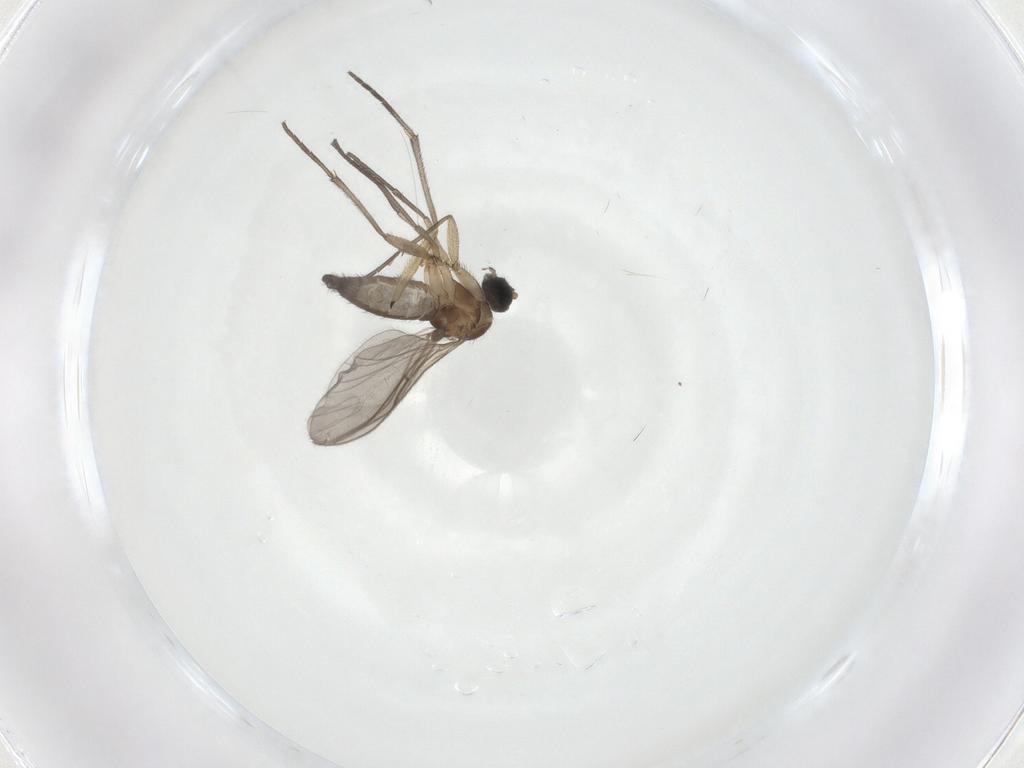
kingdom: Animalia
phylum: Arthropoda
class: Insecta
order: Diptera
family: Sciaridae
